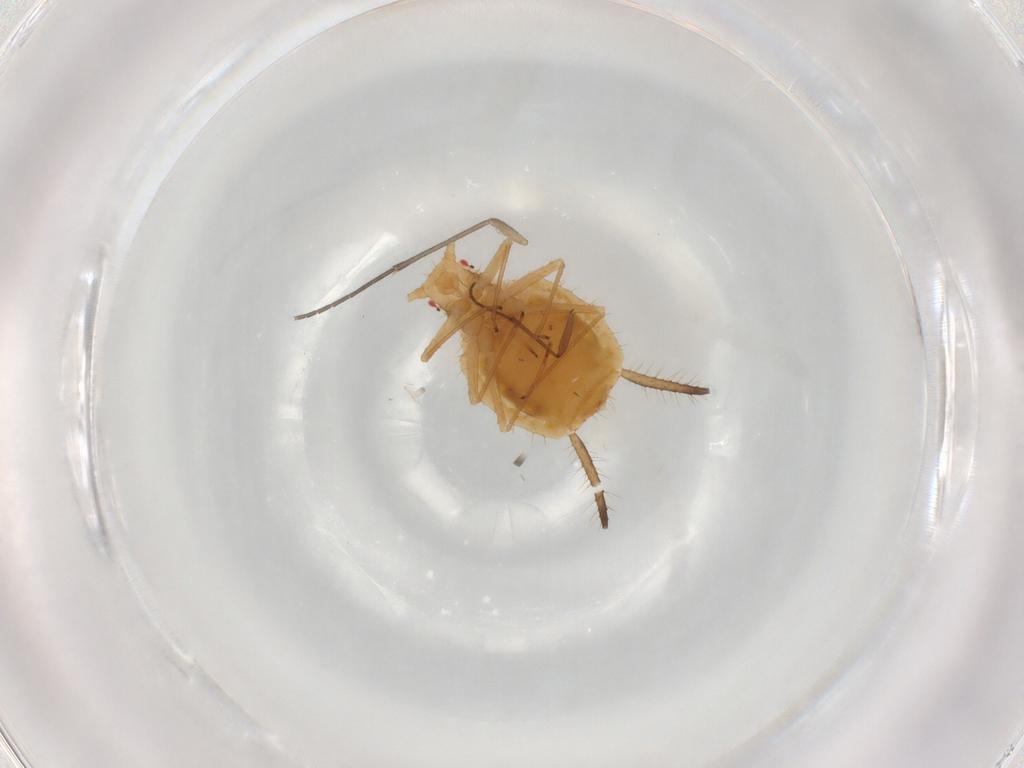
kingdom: Animalia
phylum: Arthropoda
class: Insecta
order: Hemiptera
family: Aphididae
